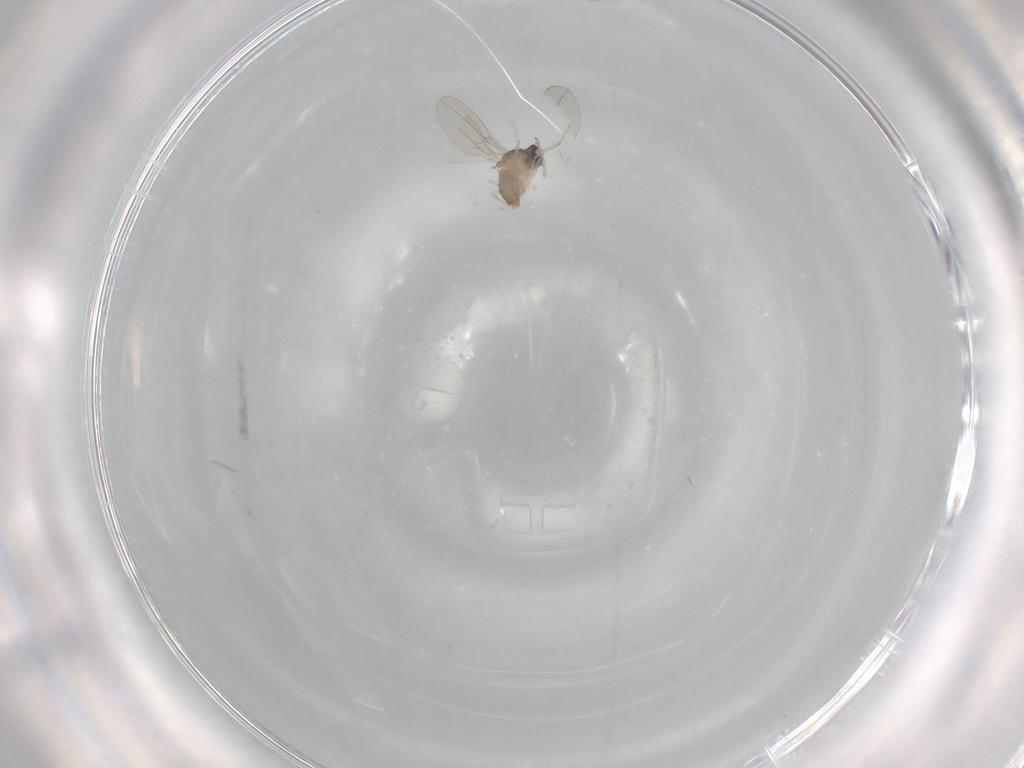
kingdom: Animalia
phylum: Arthropoda
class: Insecta
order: Diptera
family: Cecidomyiidae
